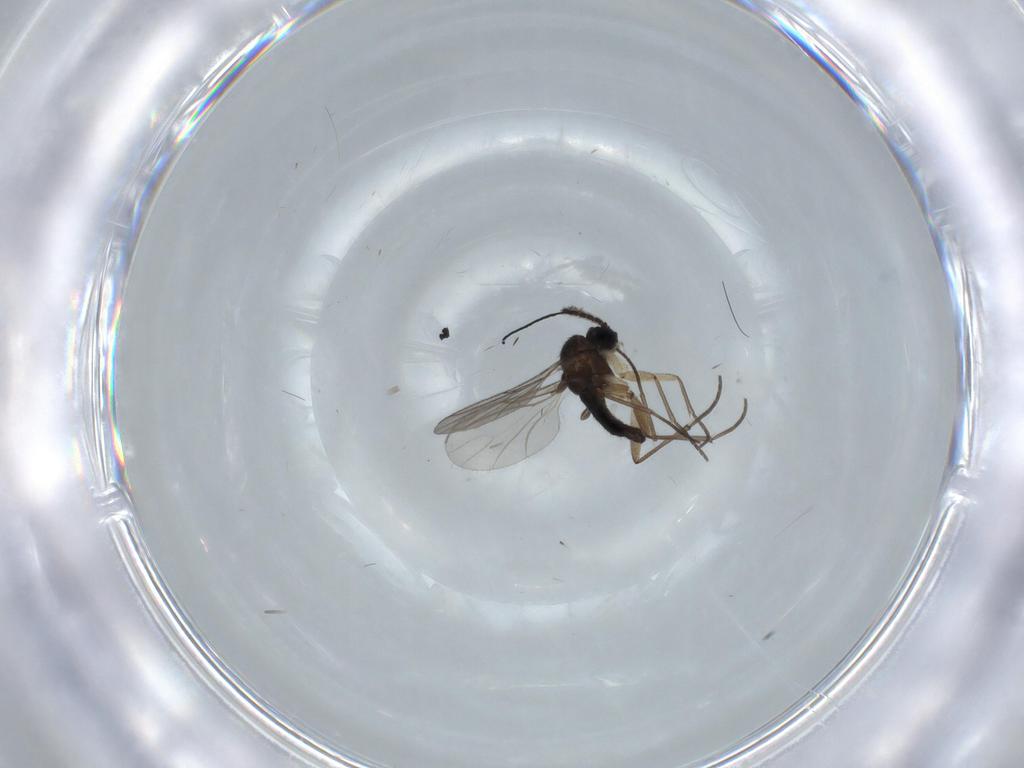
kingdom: Animalia
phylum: Arthropoda
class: Insecta
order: Diptera
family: Sciaridae
